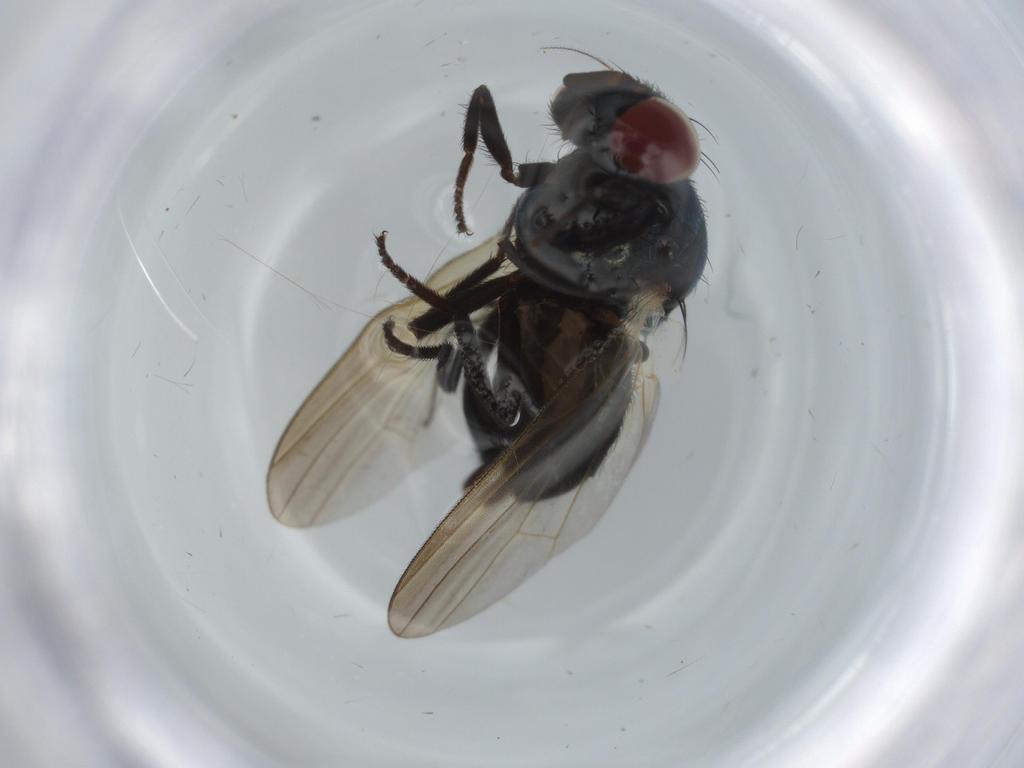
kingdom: Animalia
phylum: Arthropoda
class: Insecta
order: Diptera
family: Lonchaeidae
